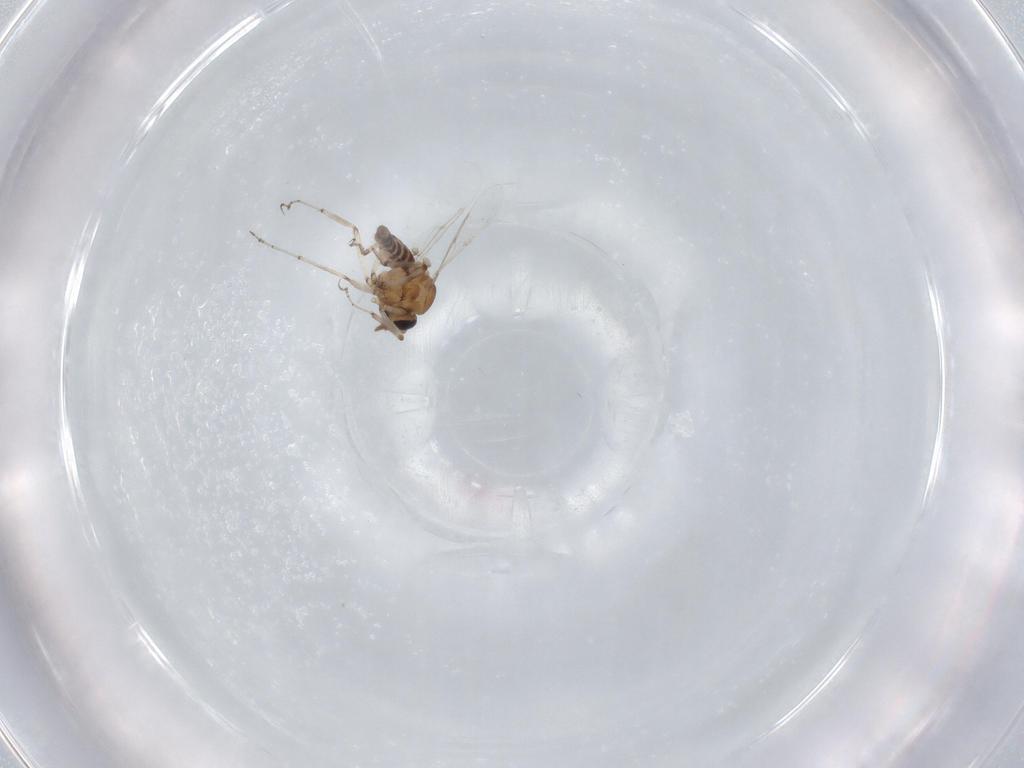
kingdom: Animalia
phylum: Arthropoda
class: Insecta
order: Diptera
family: Ceratopogonidae
